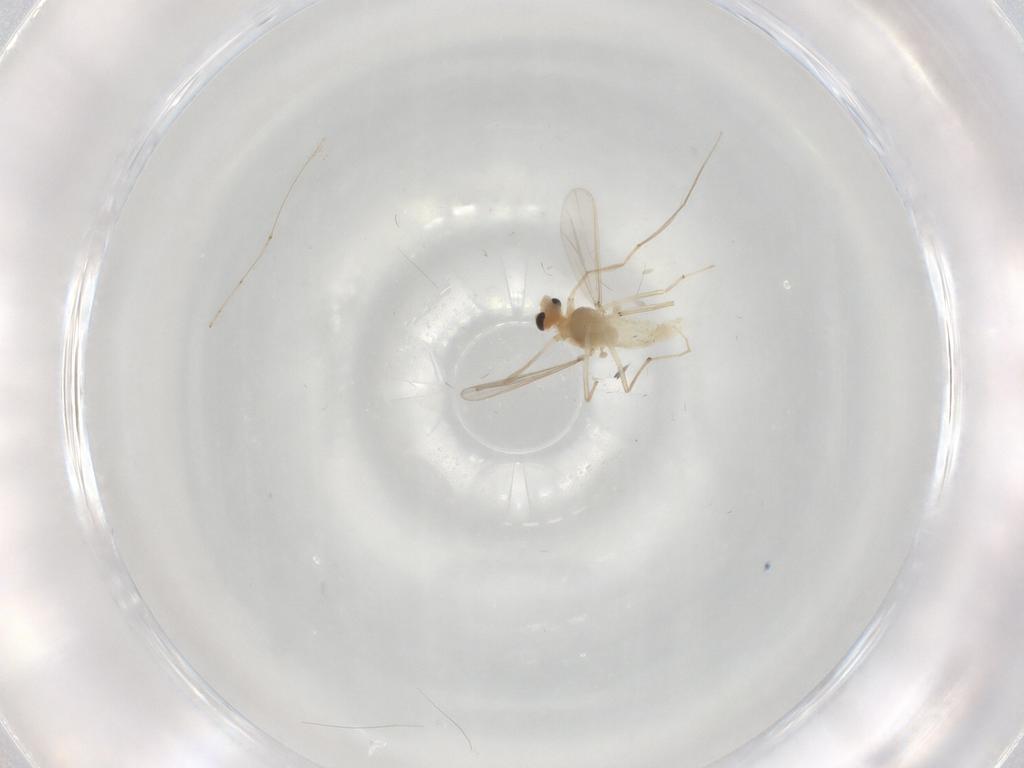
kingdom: Animalia
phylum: Arthropoda
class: Insecta
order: Diptera
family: Chironomidae
